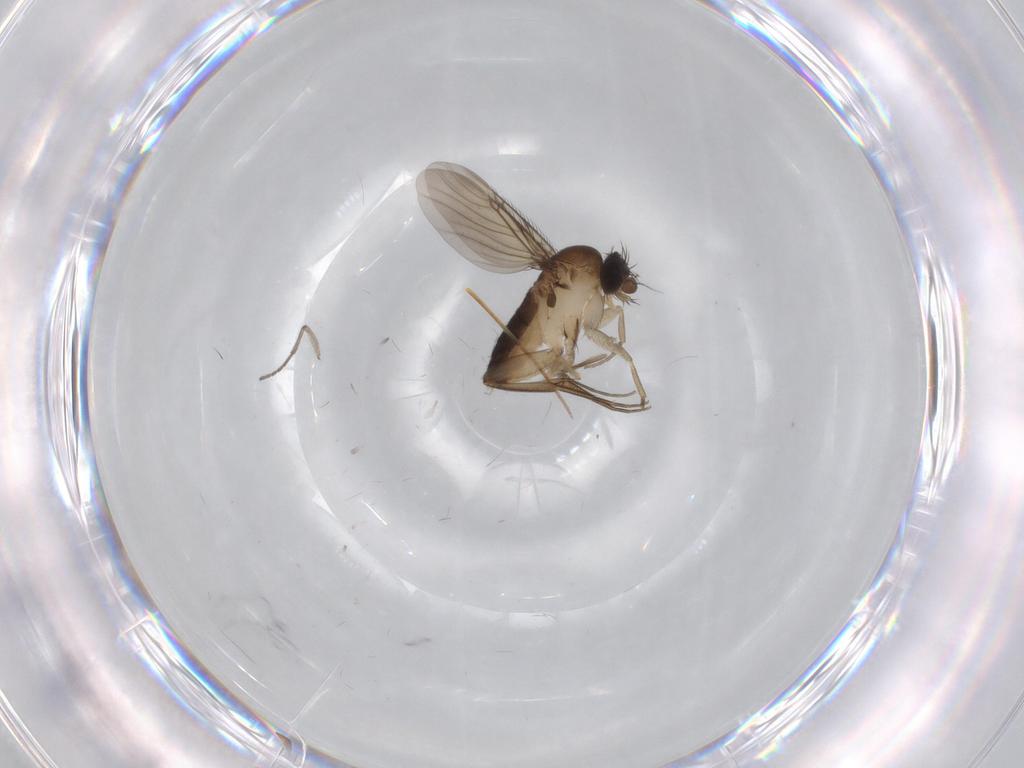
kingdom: Animalia
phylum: Arthropoda
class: Insecta
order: Diptera
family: Phoridae
